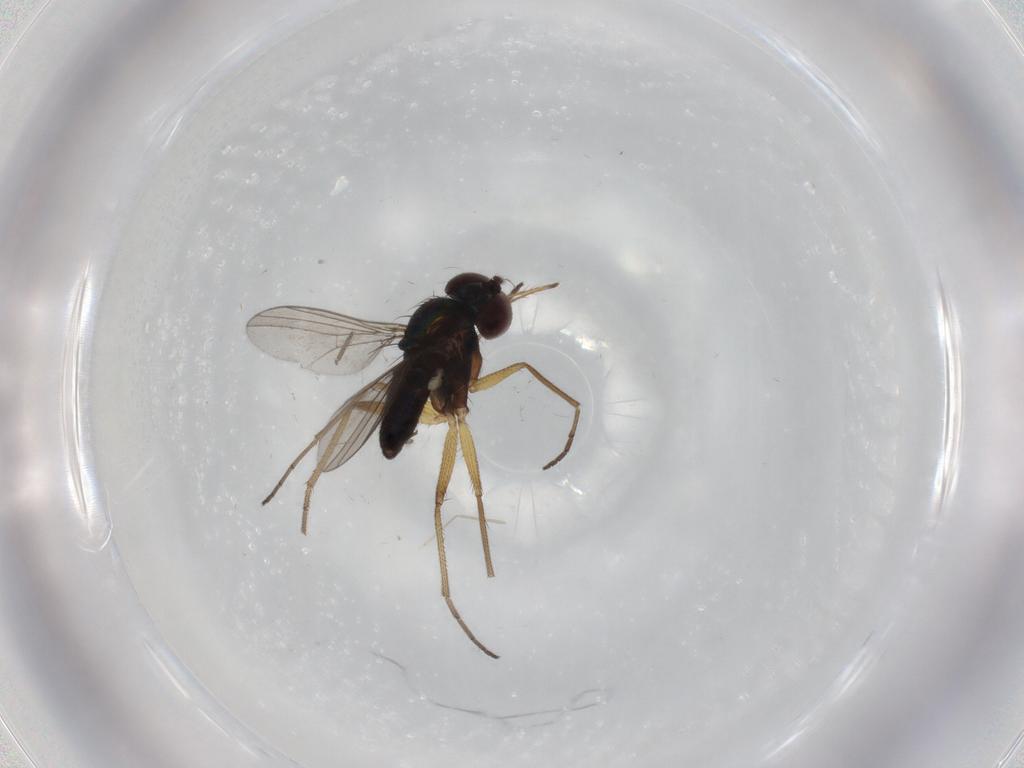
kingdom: Animalia
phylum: Arthropoda
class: Insecta
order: Diptera
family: Dolichopodidae
